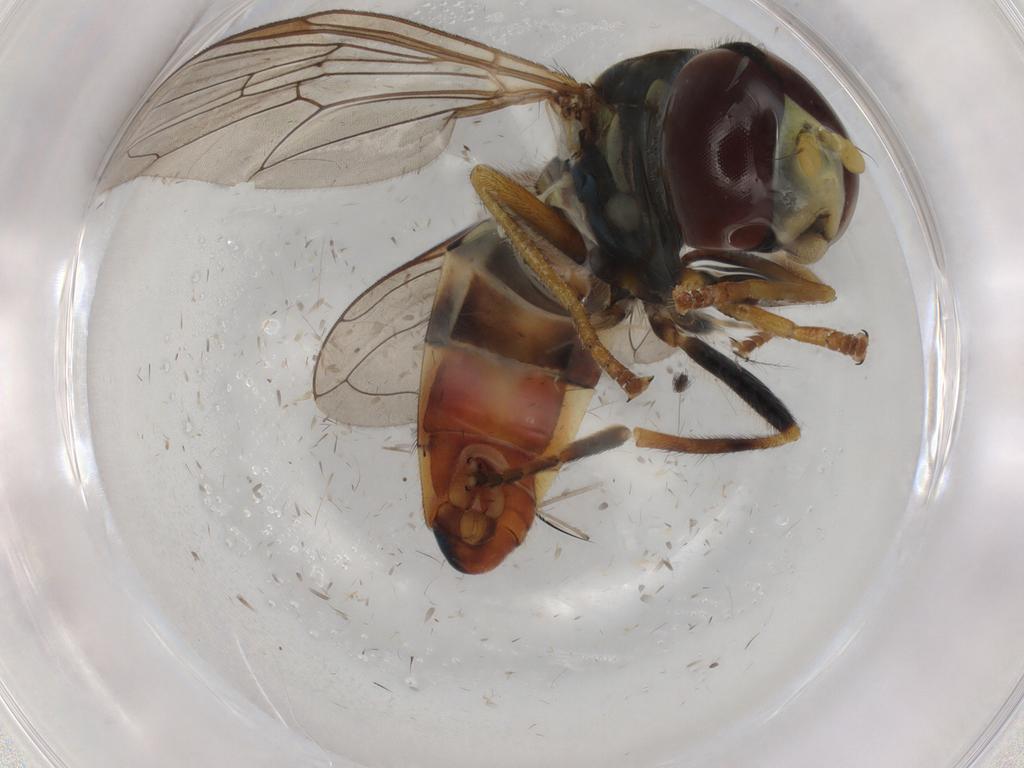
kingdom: Animalia
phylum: Arthropoda
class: Insecta
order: Diptera
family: Syrphidae
